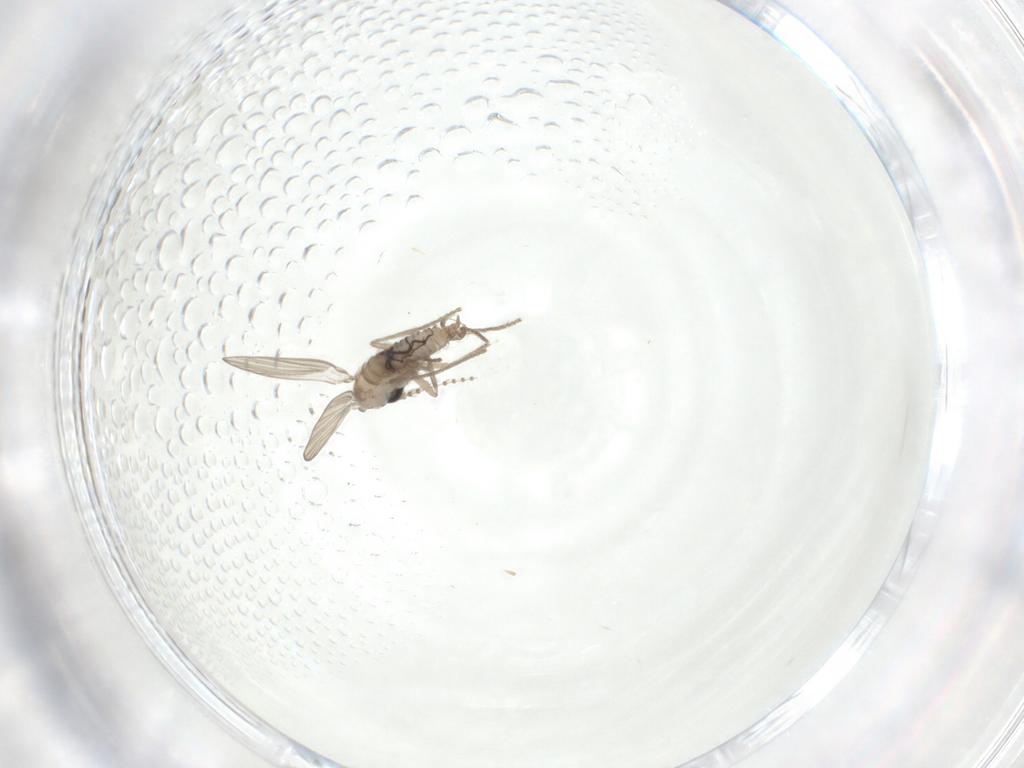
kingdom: Animalia
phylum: Arthropoda
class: Insecta
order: Diptera
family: Psychodidae
